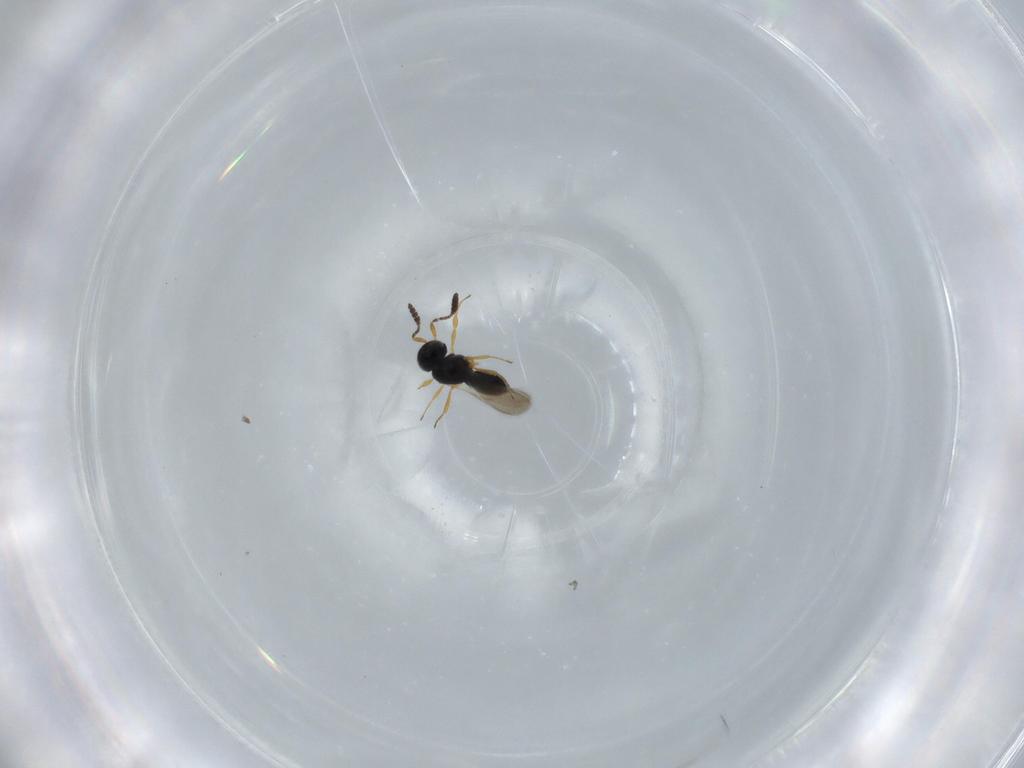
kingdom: Animalia
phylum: Arthropoda
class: Insecta
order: Hymenoptera
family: Scelionidae
